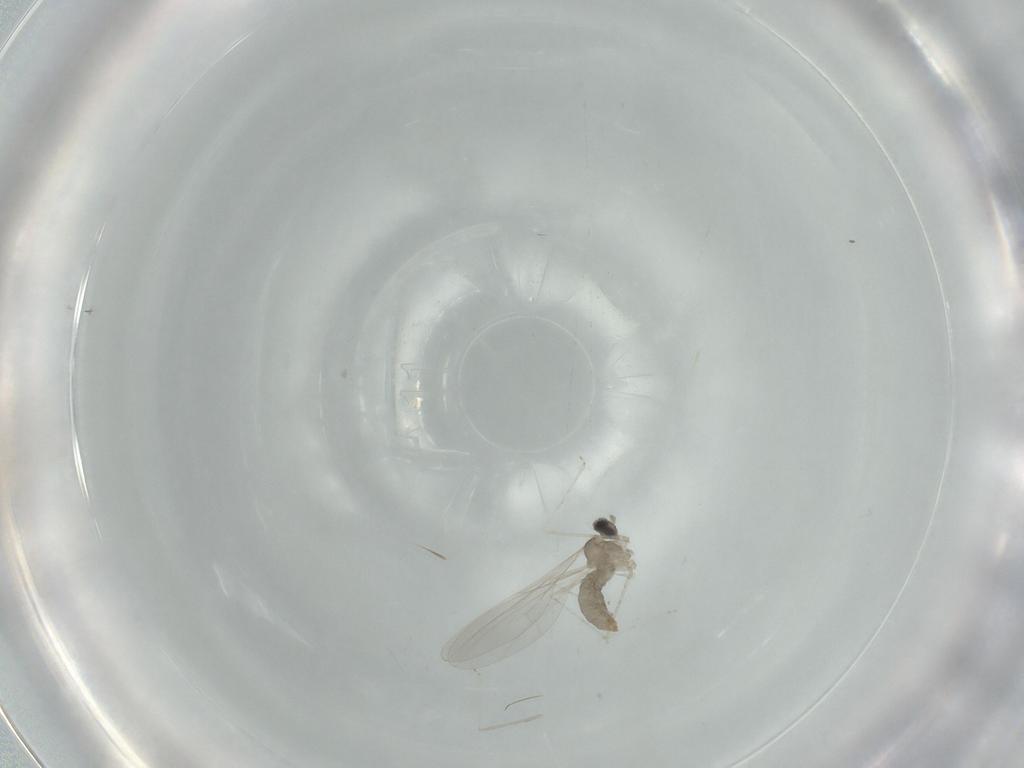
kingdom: Animalia
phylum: Arthropoda
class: Insecta
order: Diptera
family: Cecidomyiidae
